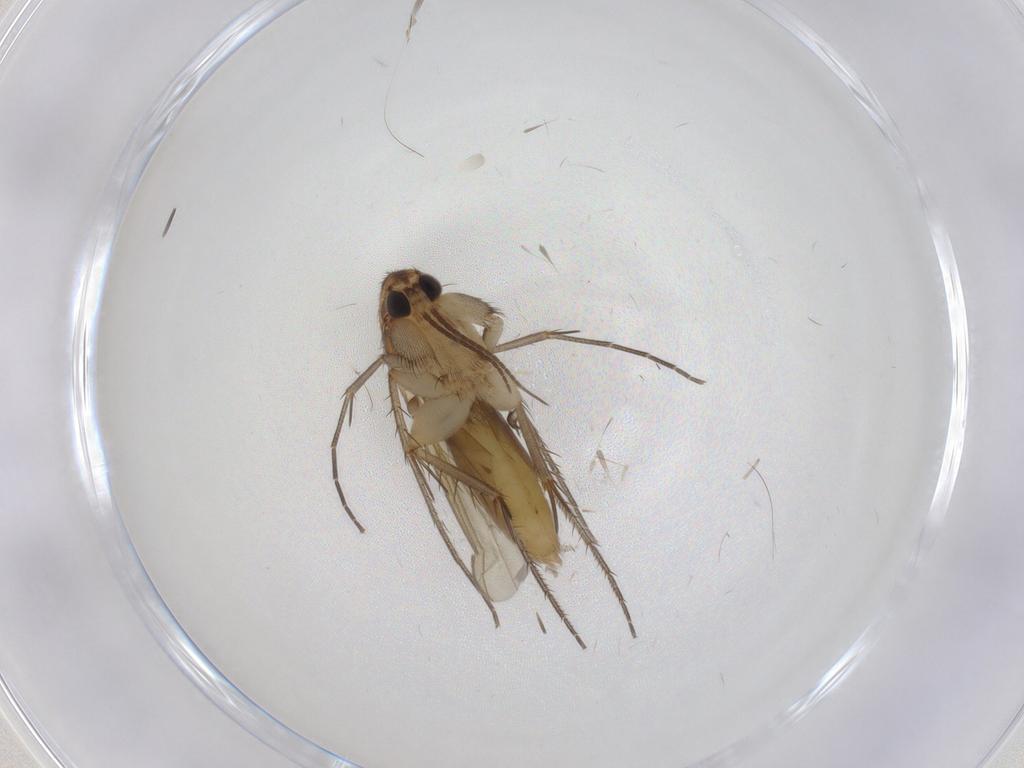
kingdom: Animalia
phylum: Arthropoda
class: Insecta
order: Diptera
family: Mycetophilidae
